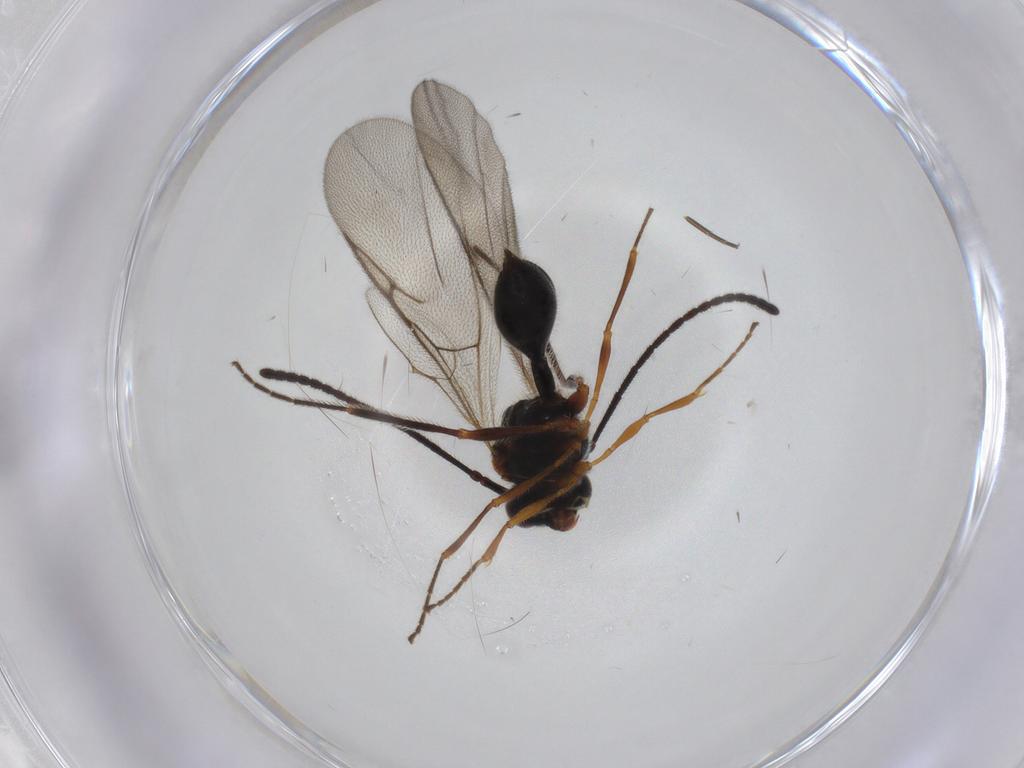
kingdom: Animalia
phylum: Arthropoda
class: Insecta
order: Hymenoptera
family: Diapriidae
